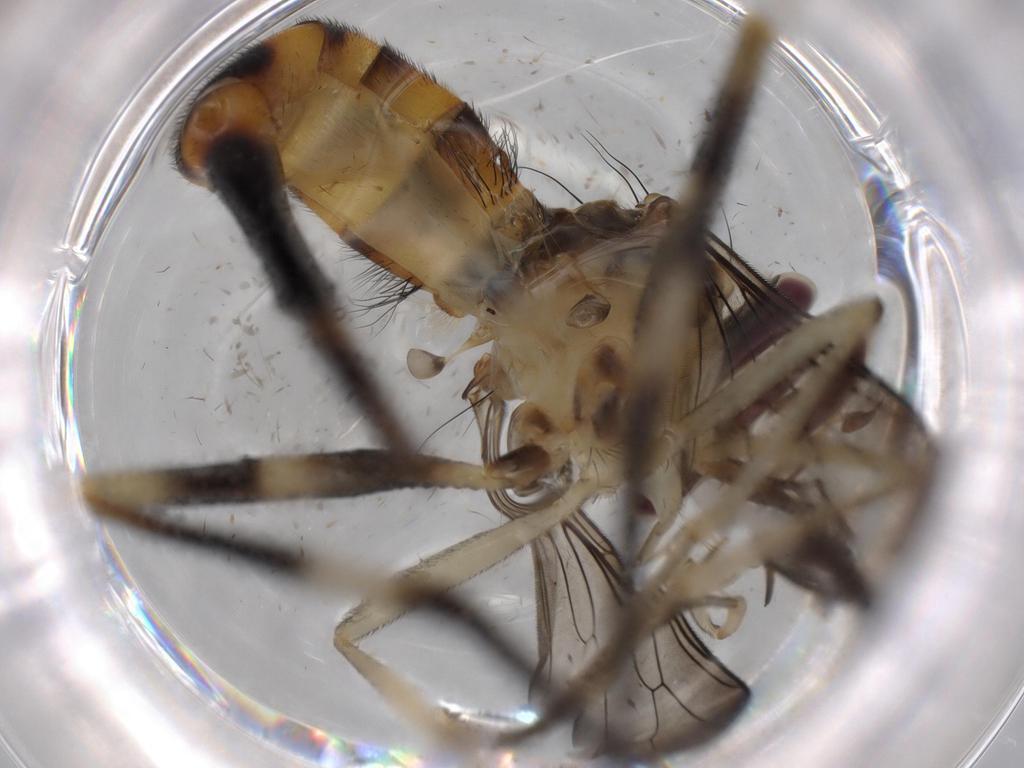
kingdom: Animalia
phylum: Arthropoda
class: Insecta
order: Diptera
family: Conopidae
